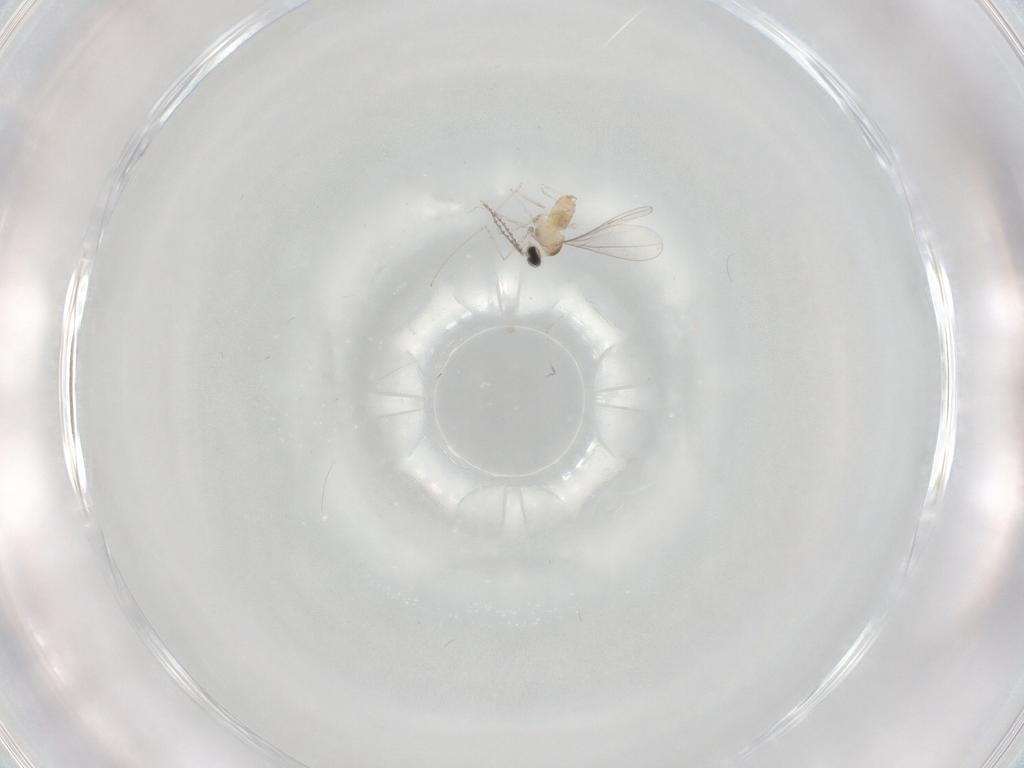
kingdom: Animalia
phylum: Arthropoda
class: Insecta
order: Diptera
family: Cecidomyiidae
